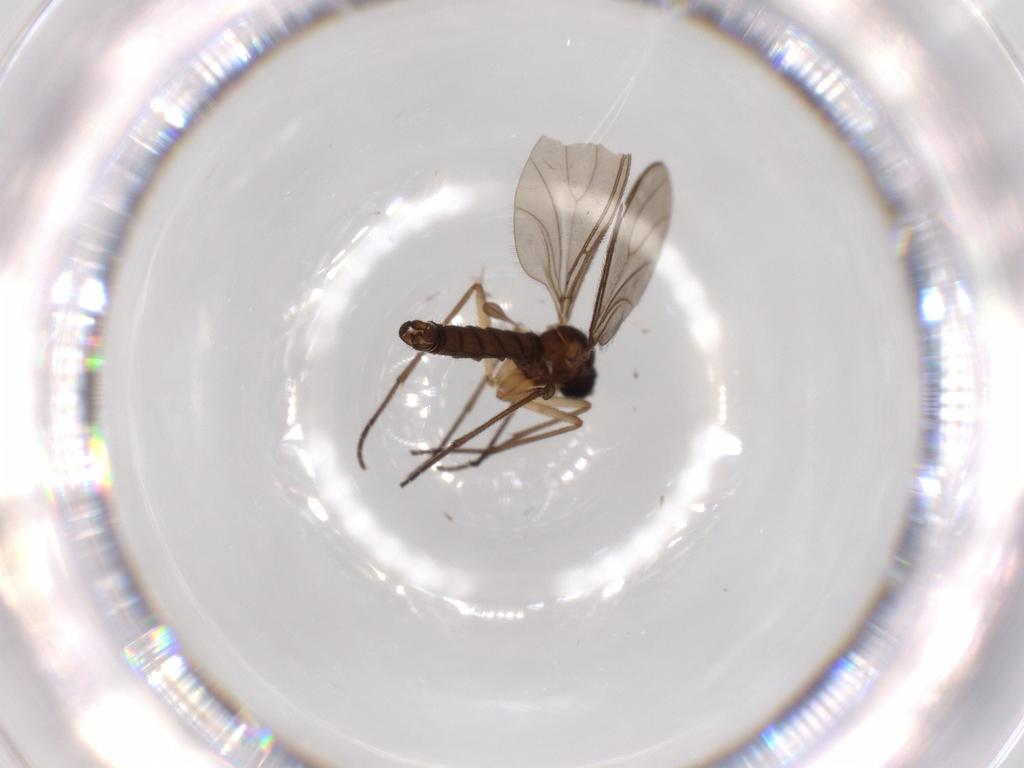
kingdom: Animalia
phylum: Arthropoda
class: Insecta
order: Diptera
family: Sciaridae
